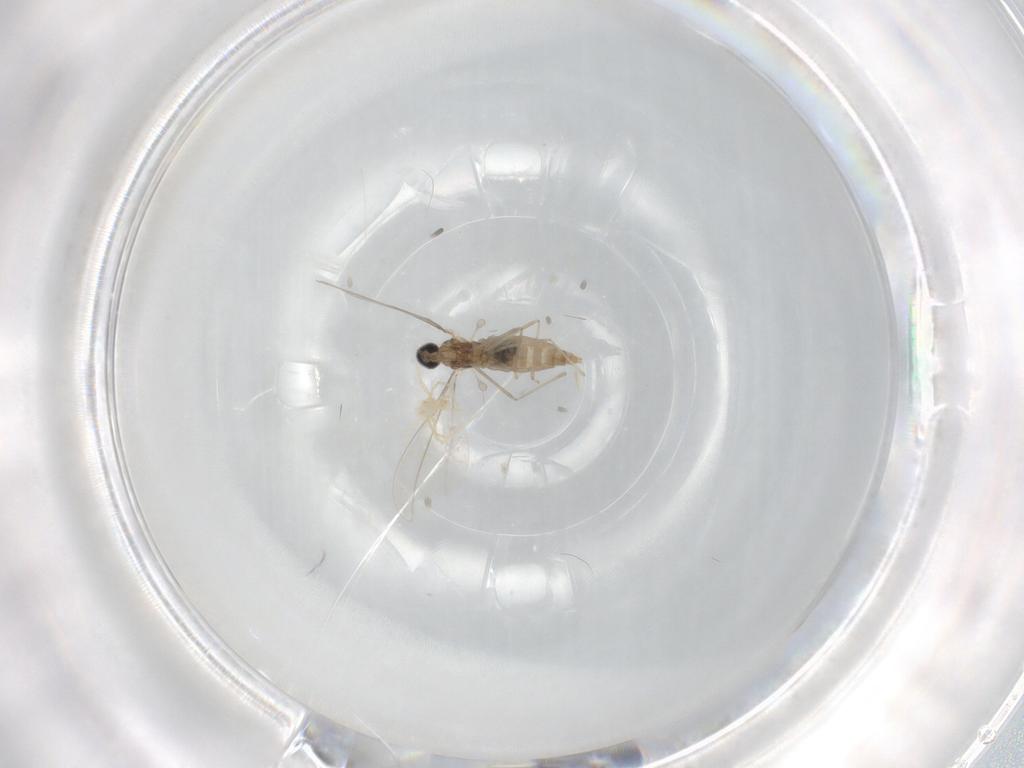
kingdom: Animalia
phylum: Arthropoda
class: Insecta
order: Diptera
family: Cecidomyiidae
